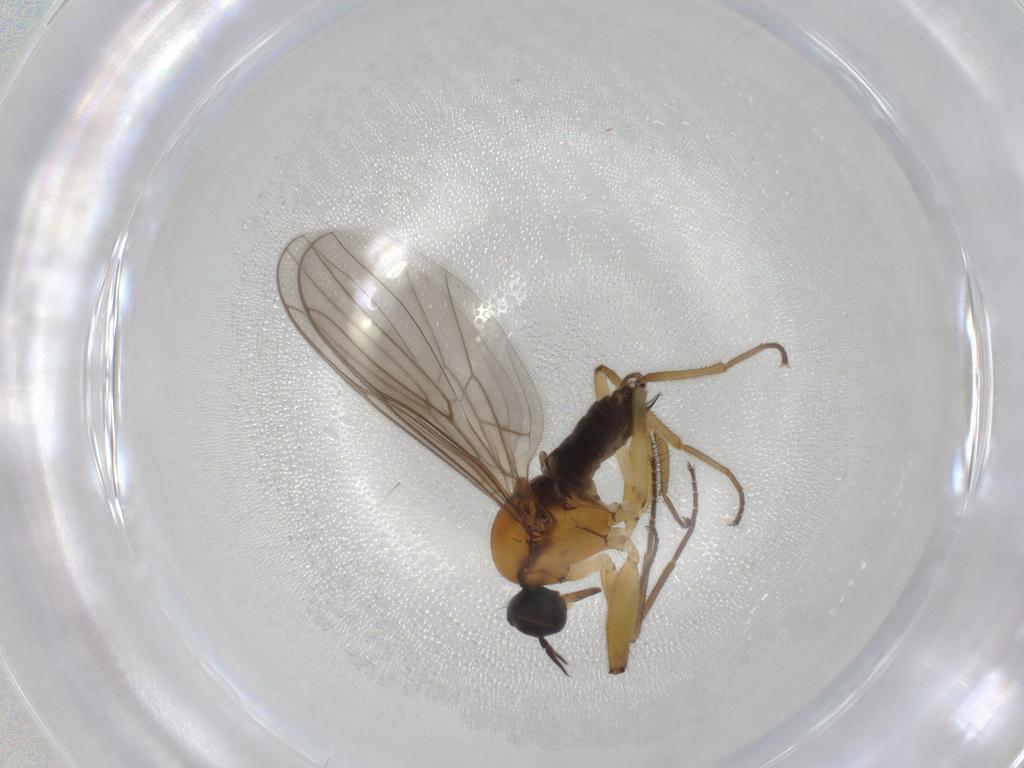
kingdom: Animalia
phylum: Arthropoda
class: Insecta
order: Diptera
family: Hybotidae
